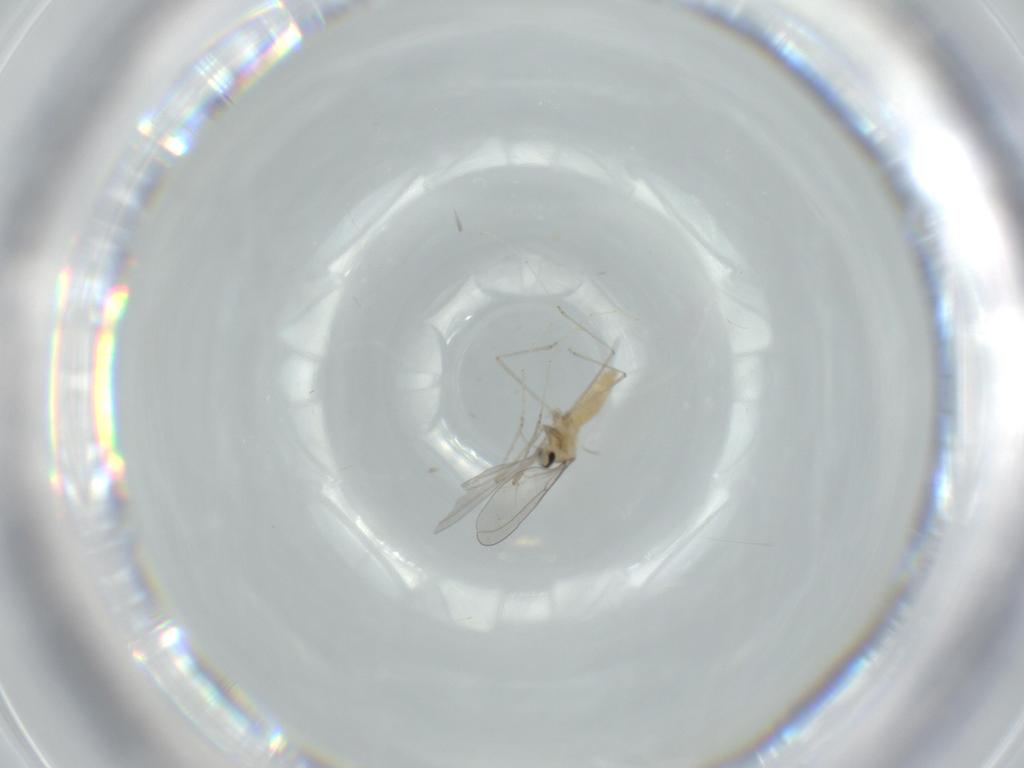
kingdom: Animalia
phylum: Arthropoda
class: Insecta
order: Diptera
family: Cecidomyiidae
